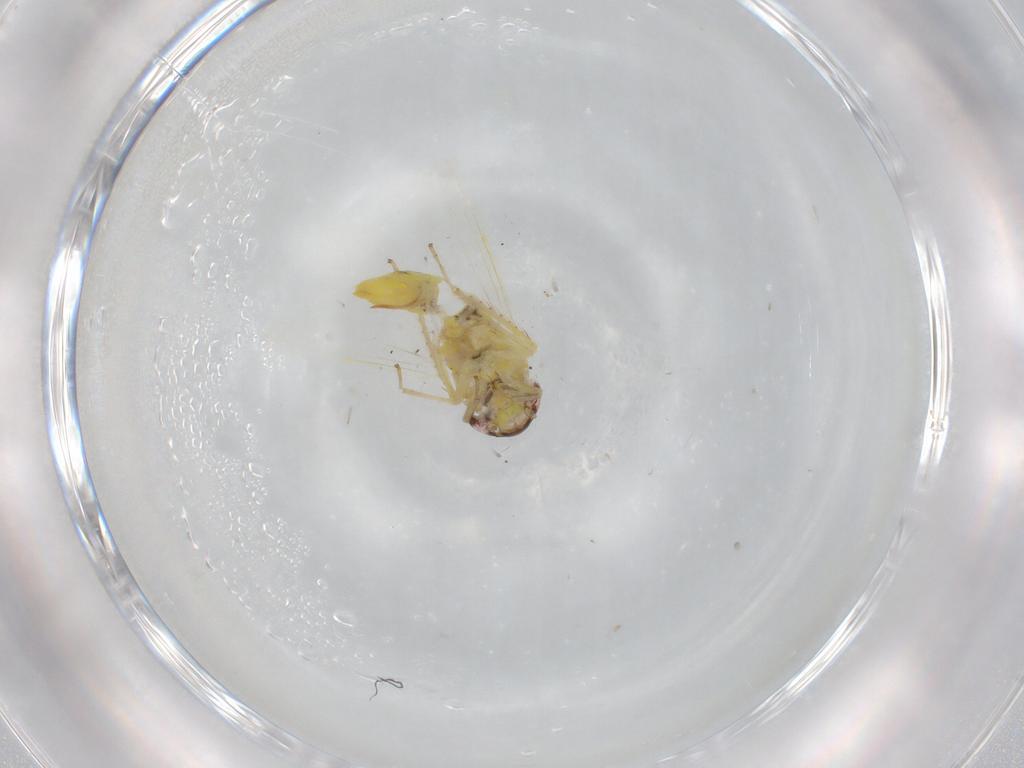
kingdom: Animalia
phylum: Arthropoda
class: Insecta
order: Hemiptera
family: Cicadellidae
